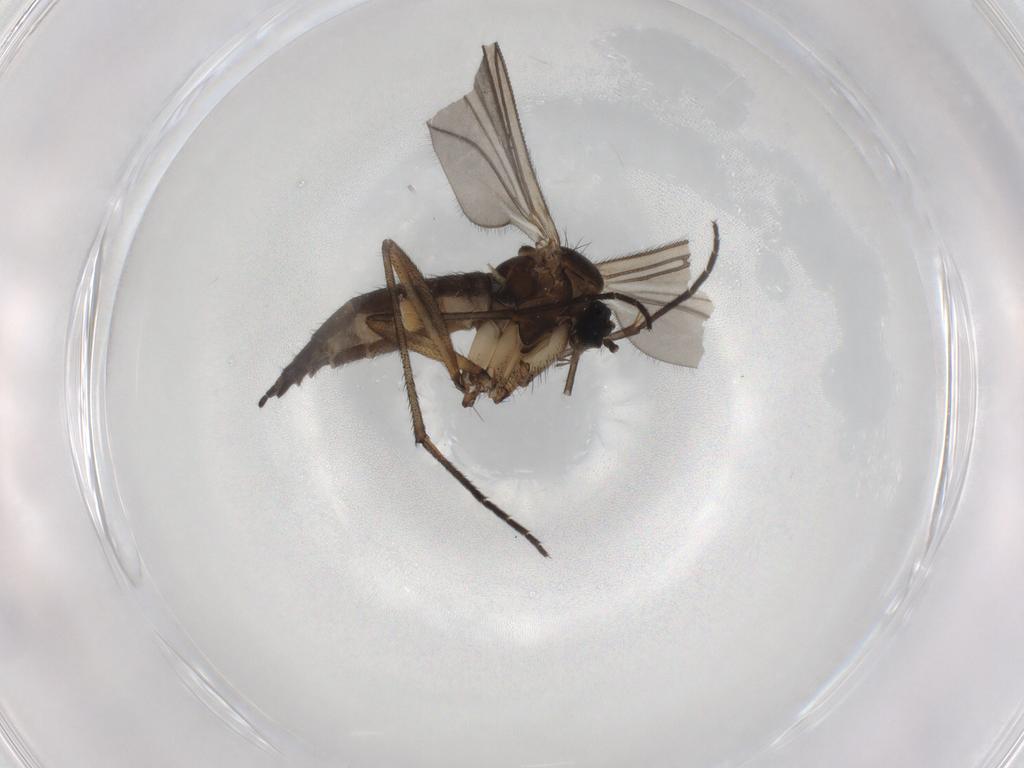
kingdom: Animalia
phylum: Arthropoda
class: Insecta
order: Diptera
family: Sciaridae
